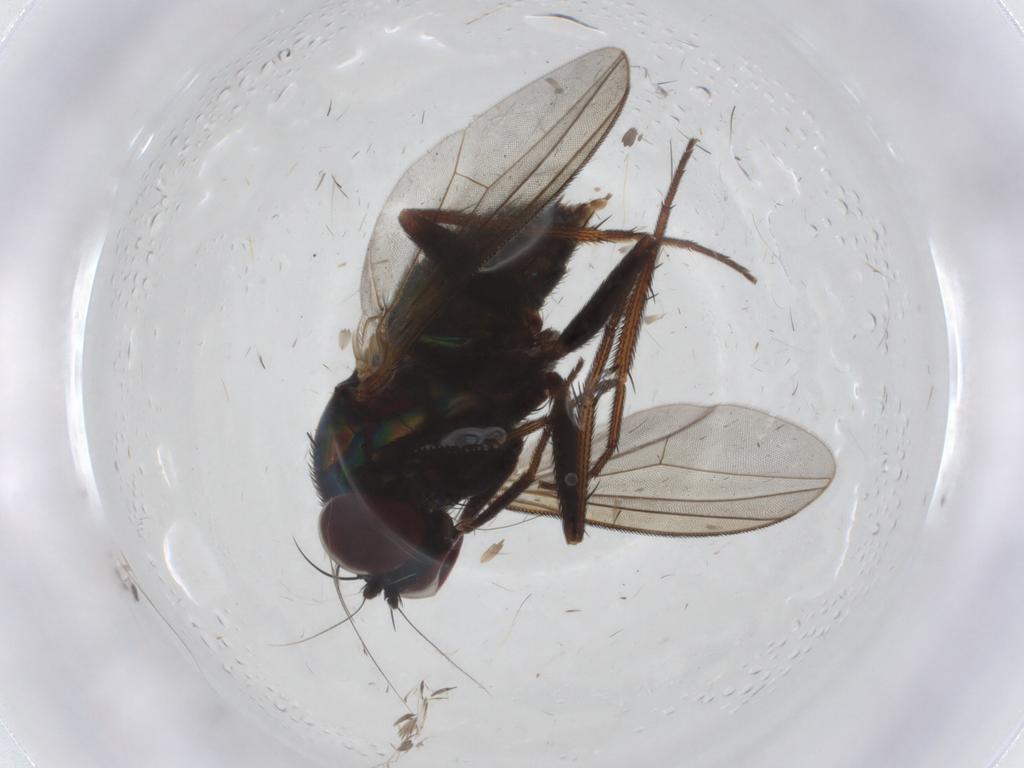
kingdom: Animalia
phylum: Arthropoda
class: Insecta
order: Diptera
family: Dolichopodidae
